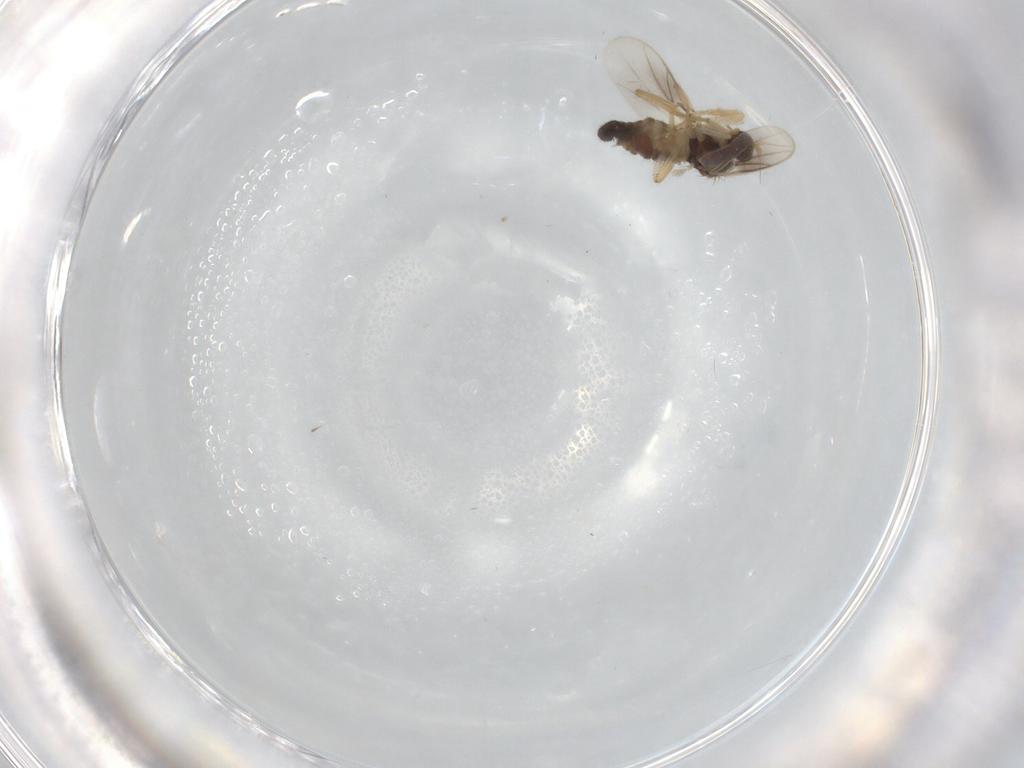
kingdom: Animalia
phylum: Arthropoda
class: Insecta
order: Diptera
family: Hybotidae
